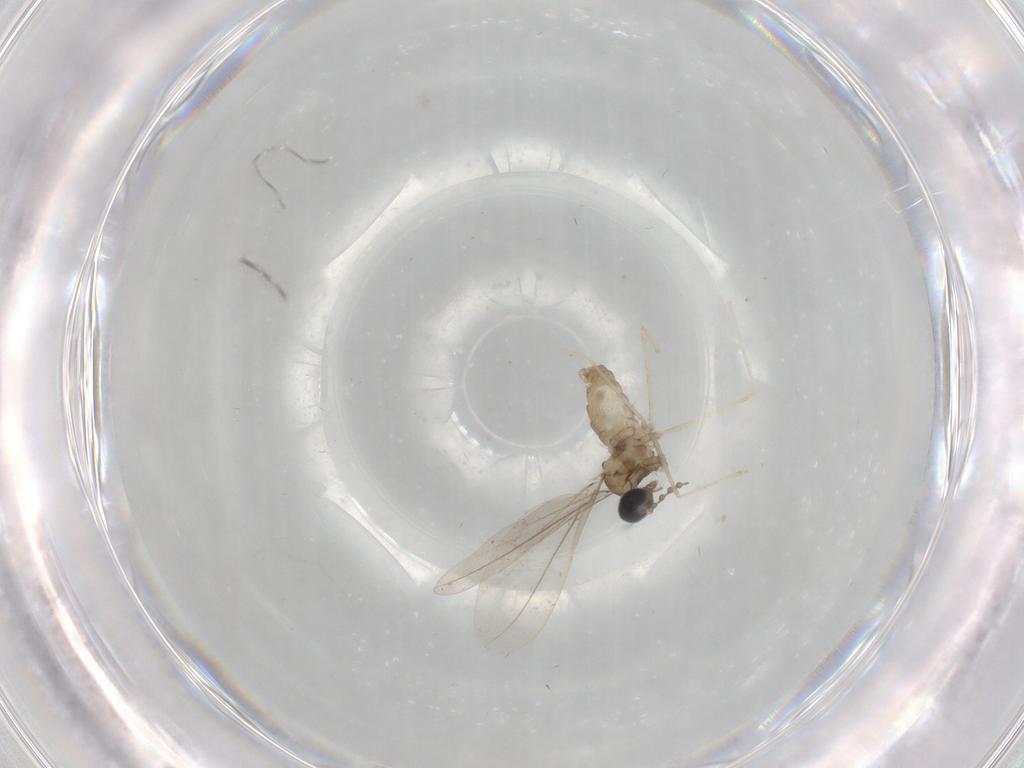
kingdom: Animalia
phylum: Arthropoda
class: Insecta
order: Diptera
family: Cecidomyiidae
